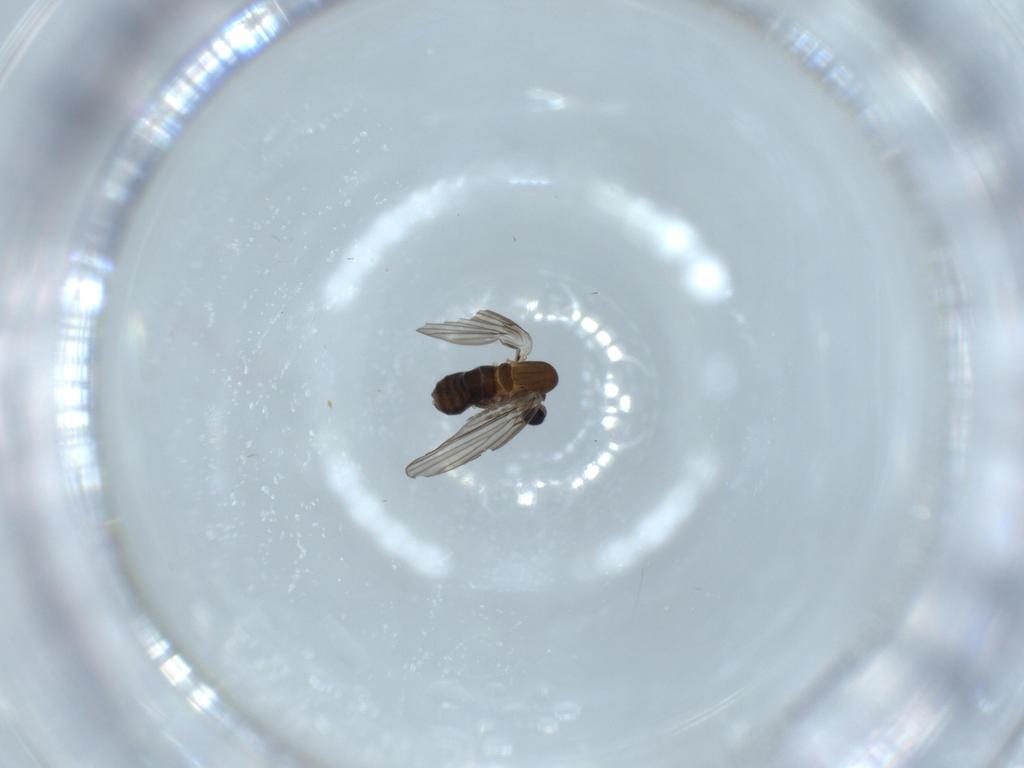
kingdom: Animalia
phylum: Arthropoda
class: Insecta
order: Diptera
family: Psychodidae
